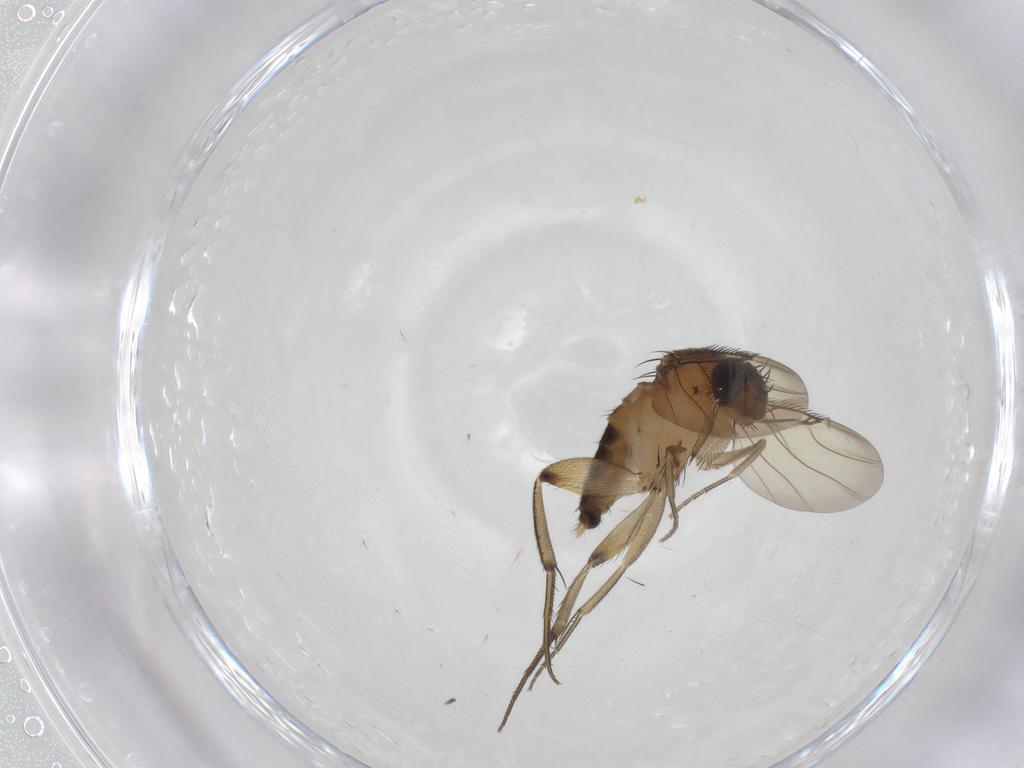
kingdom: Animalia
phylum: Arthropoda
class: Insecta
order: Diptera
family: Phoridae
